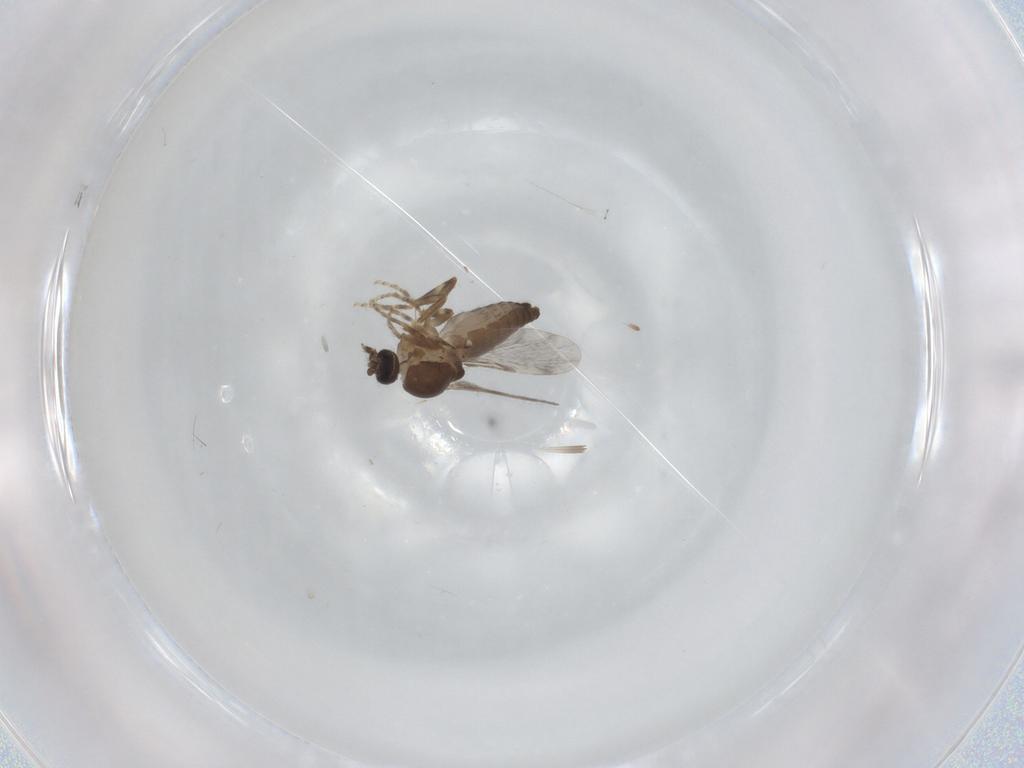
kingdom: Animalia
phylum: Arthropoda
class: Insecta
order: Diptera
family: Ceratopogonidae
